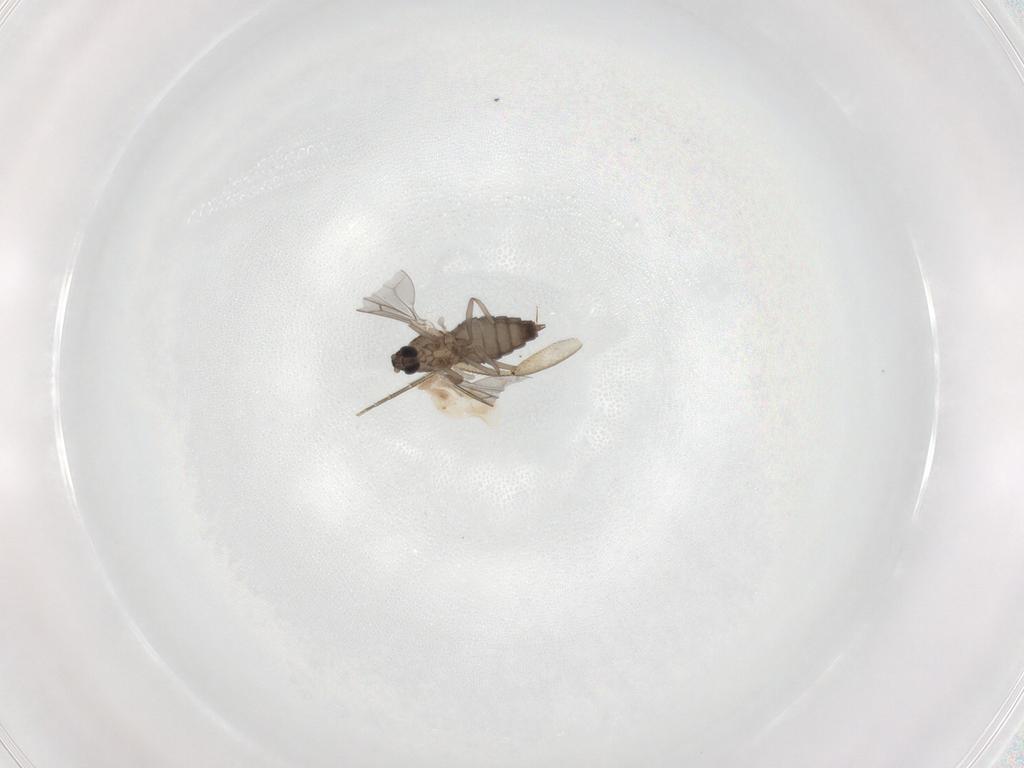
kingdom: Animalia
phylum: Arthropoda
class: Insecta
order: Diptera
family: Phoridae
